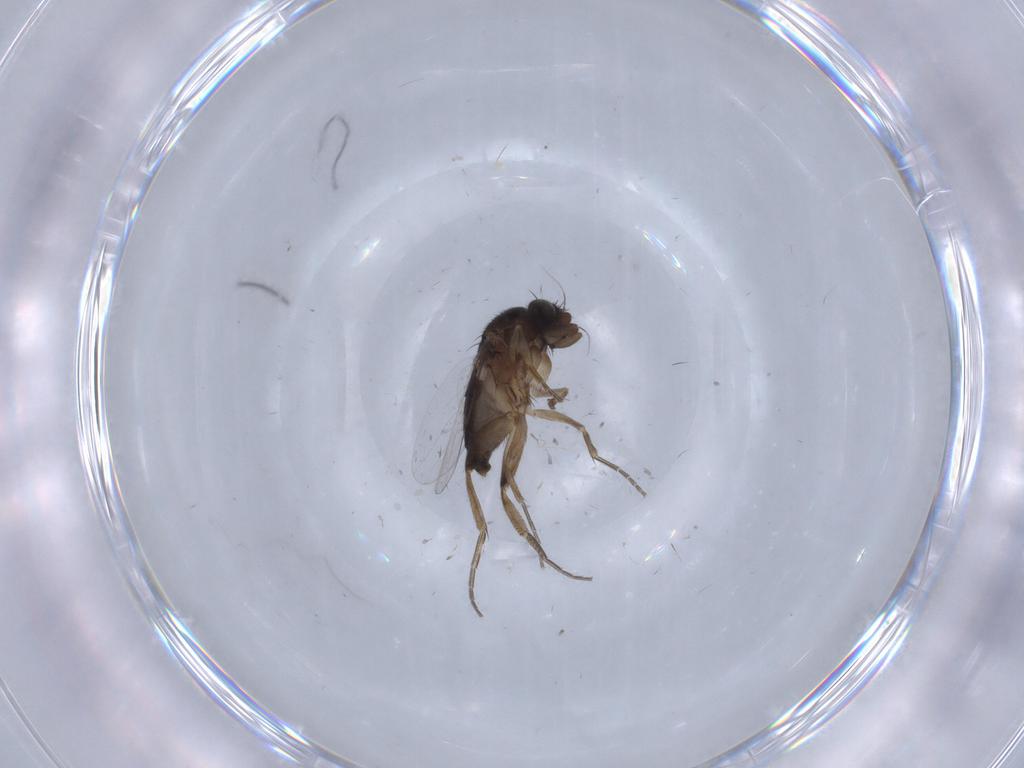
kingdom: Animalia
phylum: Arthropoda
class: Insecta
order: Diptera
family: Phoridae
